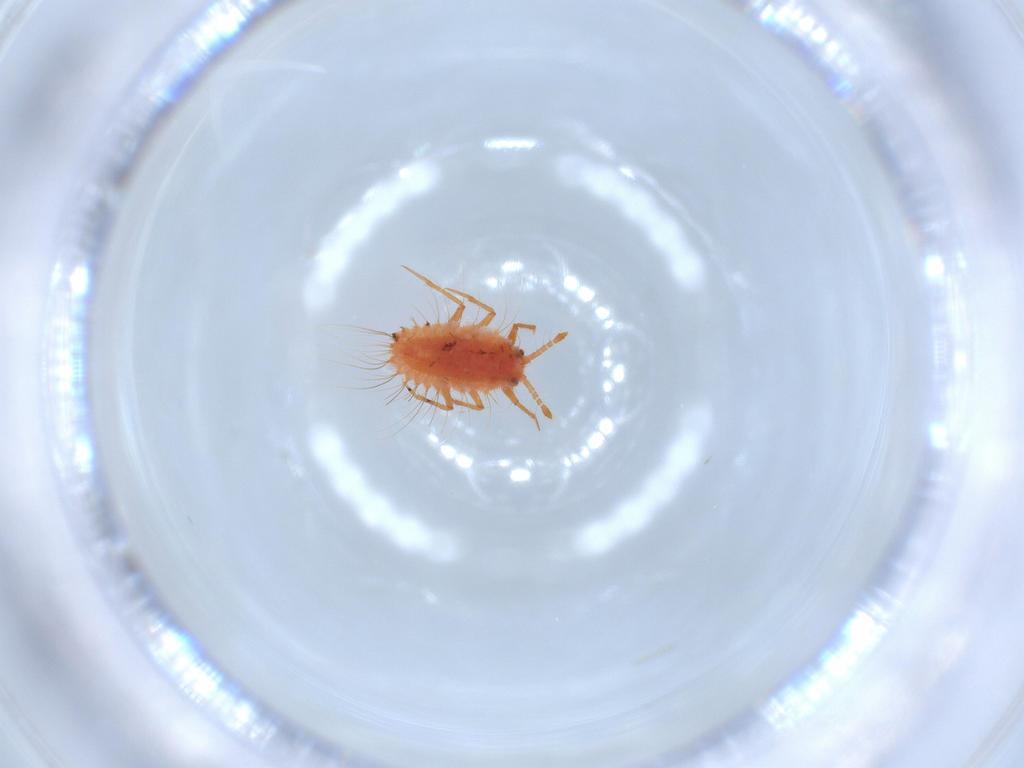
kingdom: Animalia
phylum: Arthropoda
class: Insecta
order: Hemiptera
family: Monophlebidae
